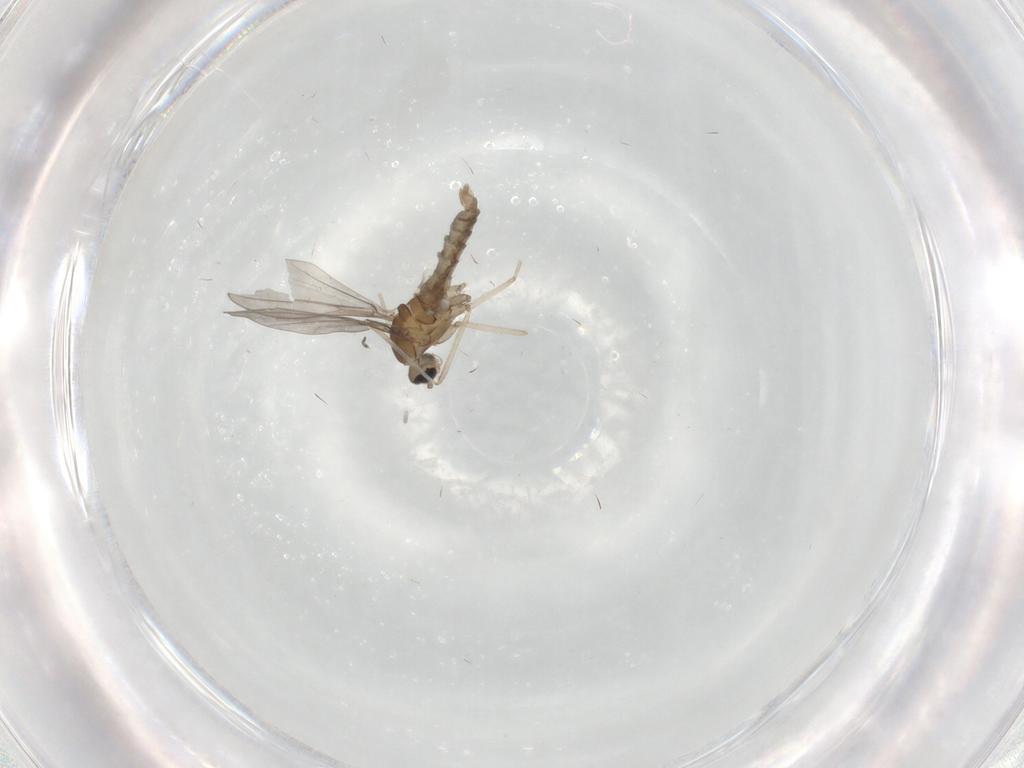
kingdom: Animalia
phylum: Arthropoda
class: Insecta
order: Diptera
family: Cecidomyiidae
